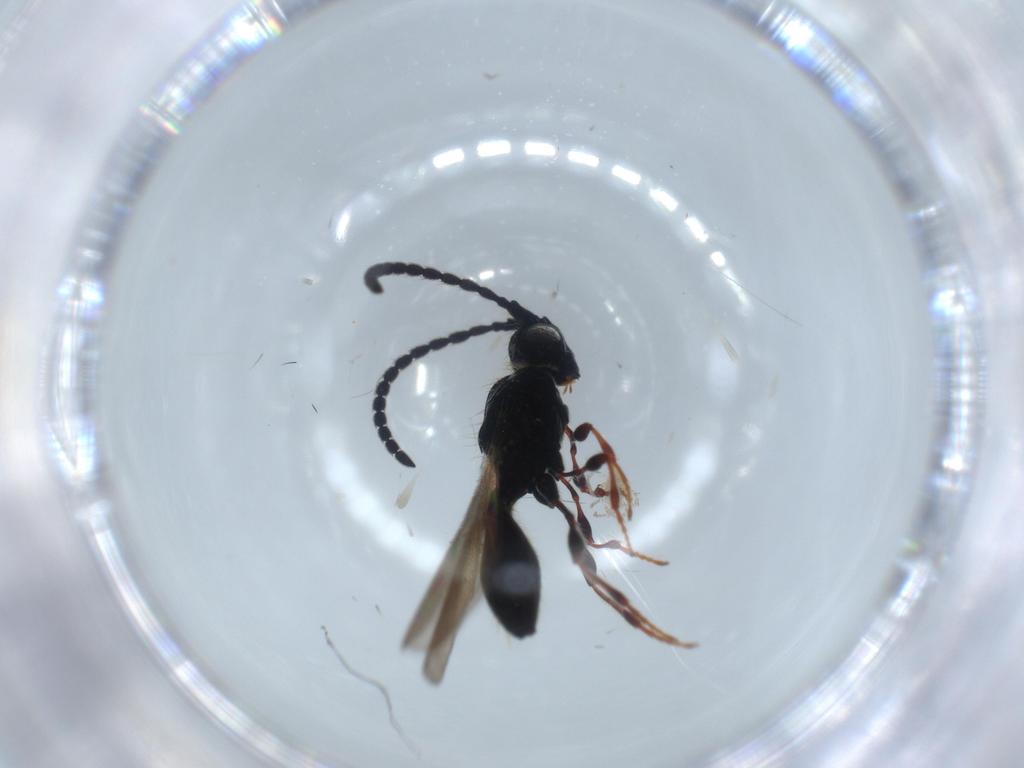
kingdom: Animalia
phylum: Arthropoda
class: Insecta
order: Hymenoptera
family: Diapriidae
